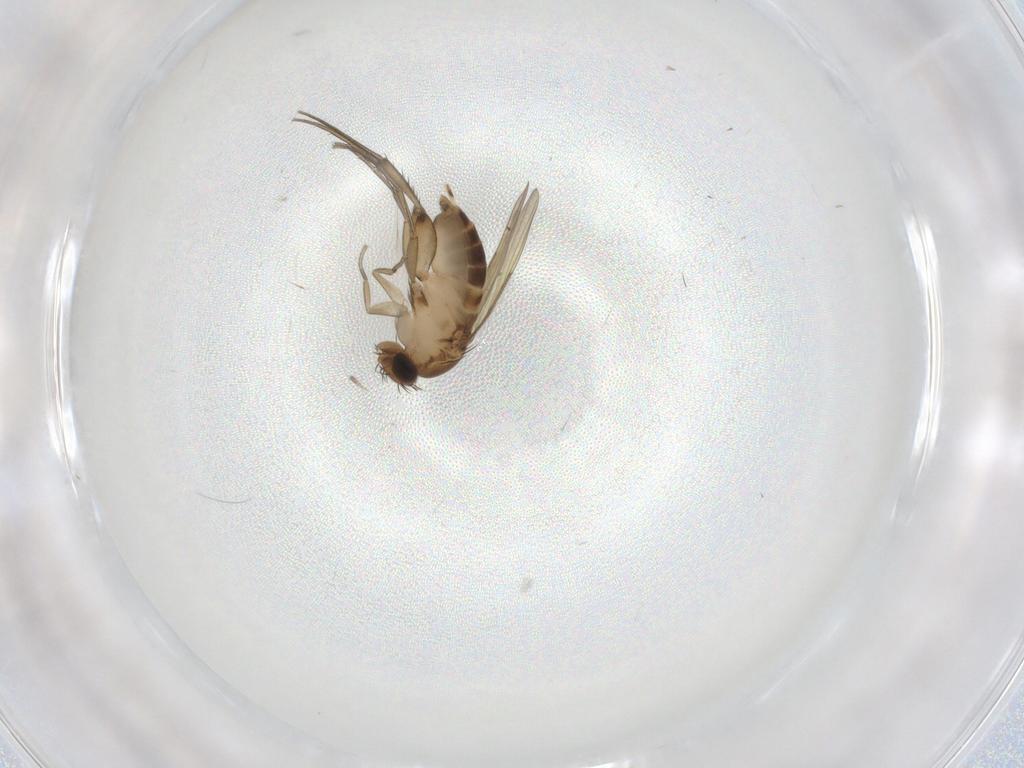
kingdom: Animalia
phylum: Arthropoda
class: Insecta
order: Diptera
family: Phoridae
